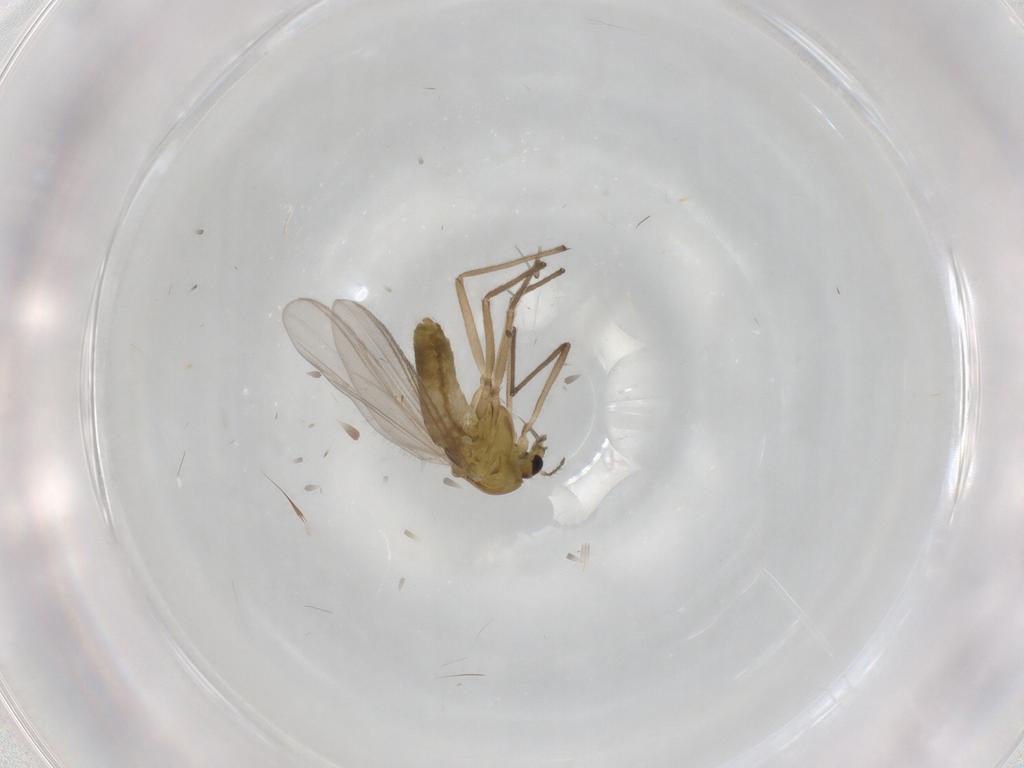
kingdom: Animalia
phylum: Arthropoda
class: Insecta
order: Diptera
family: Chironomidae
